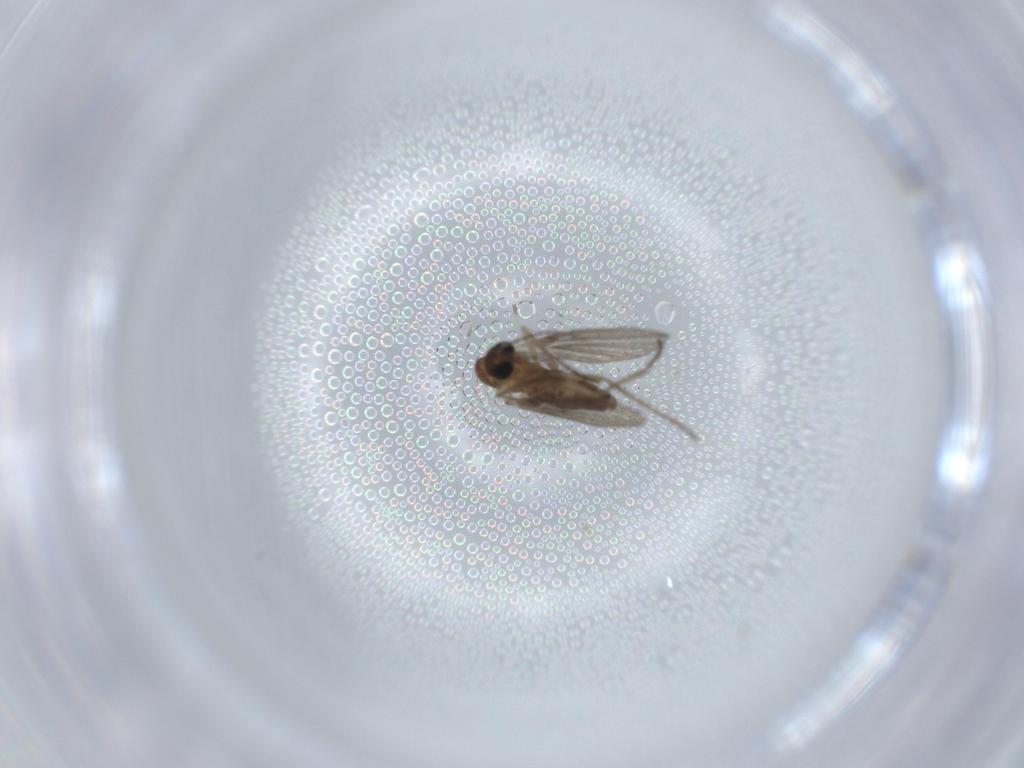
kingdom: Animalia
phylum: Arthropoda
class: Insecta
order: Diptera
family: Psychodidae
